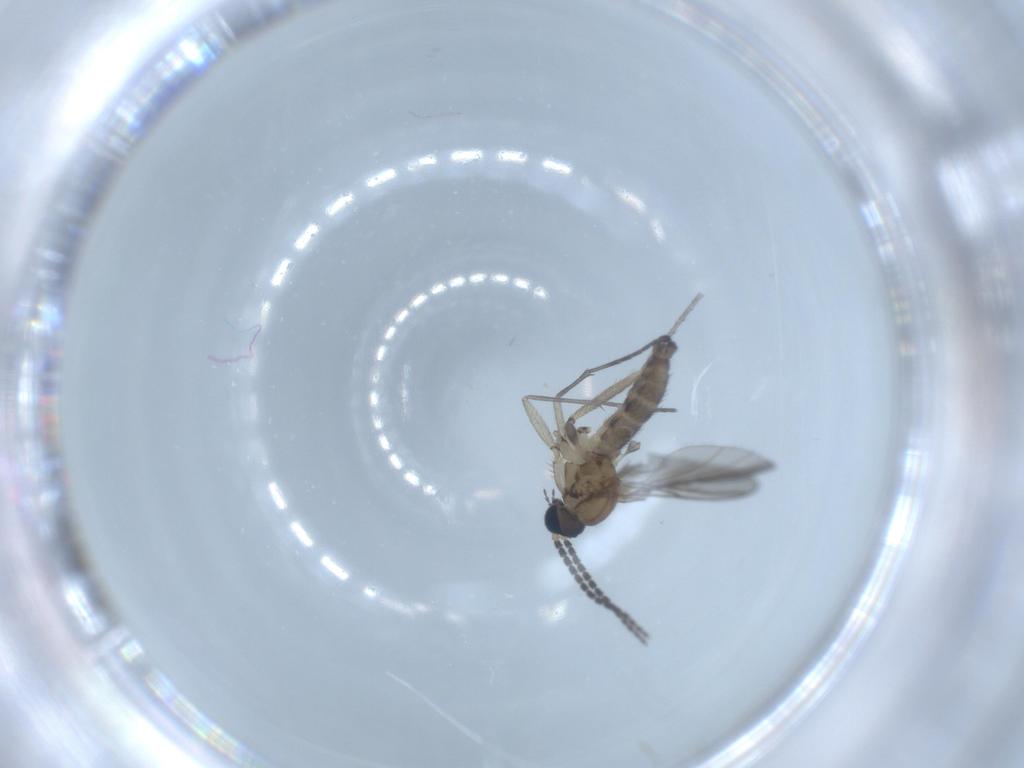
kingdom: Animalia
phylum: Arthropoda
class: Insecta
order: Diptera
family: Sciaridae
